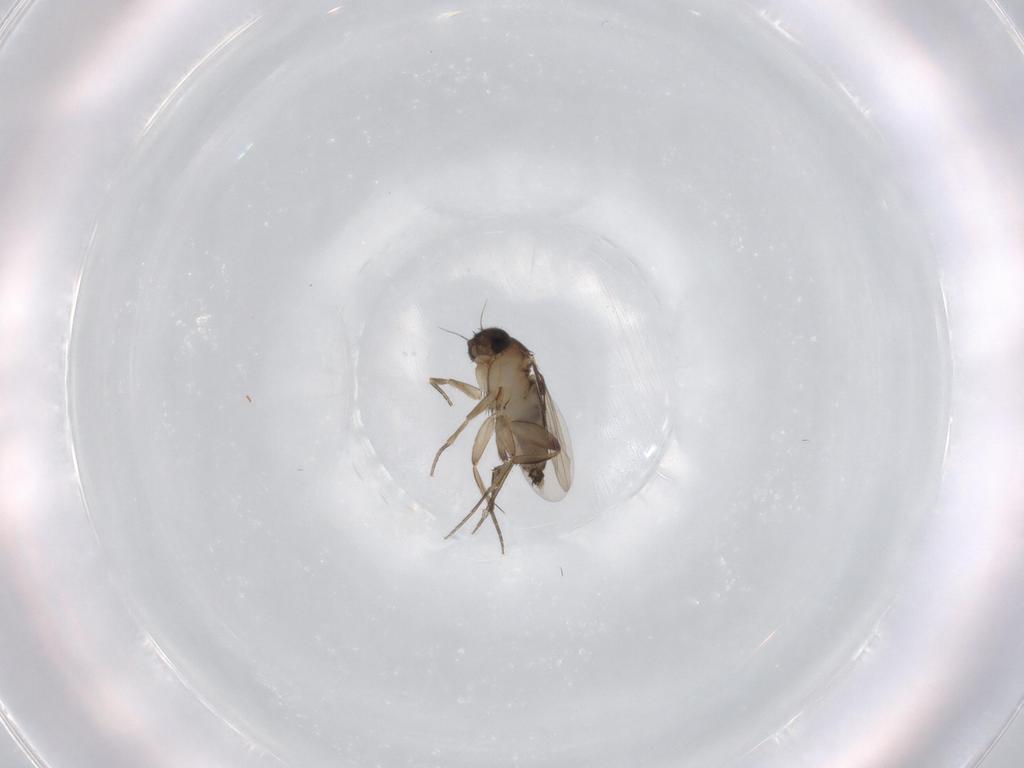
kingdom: Animalia
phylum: Arthropoda
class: Insecta
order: Diptera
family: Phoridae
